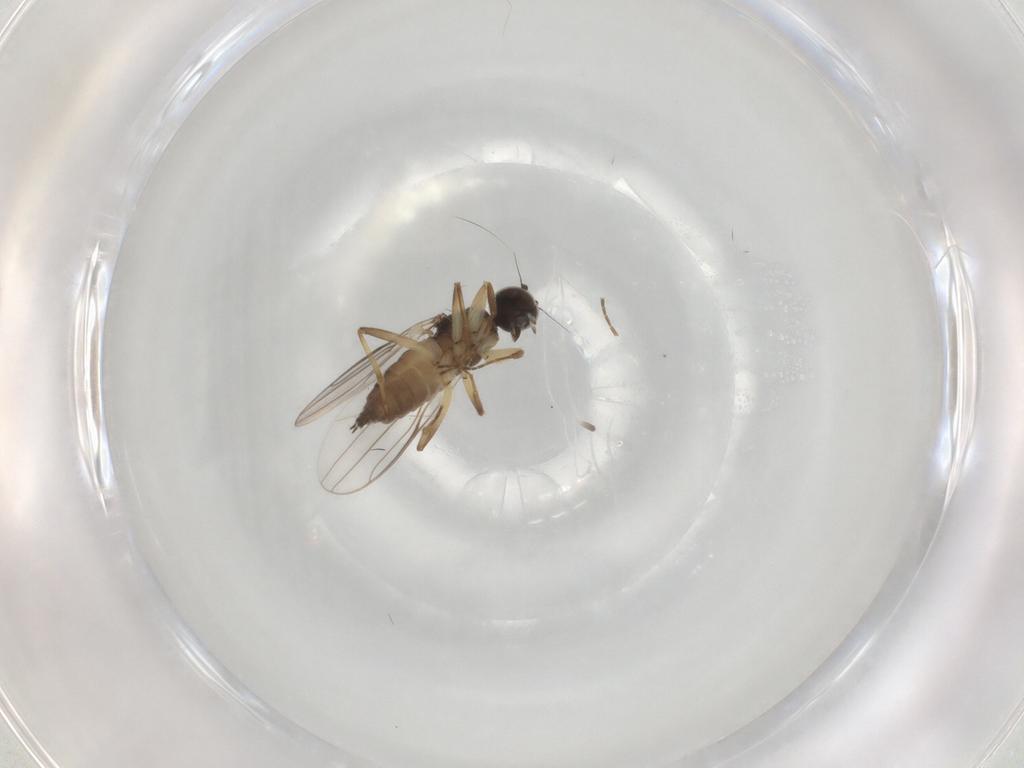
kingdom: Animalia
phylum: Arthropoda
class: Insecta
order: Diptera
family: Hybotidae
